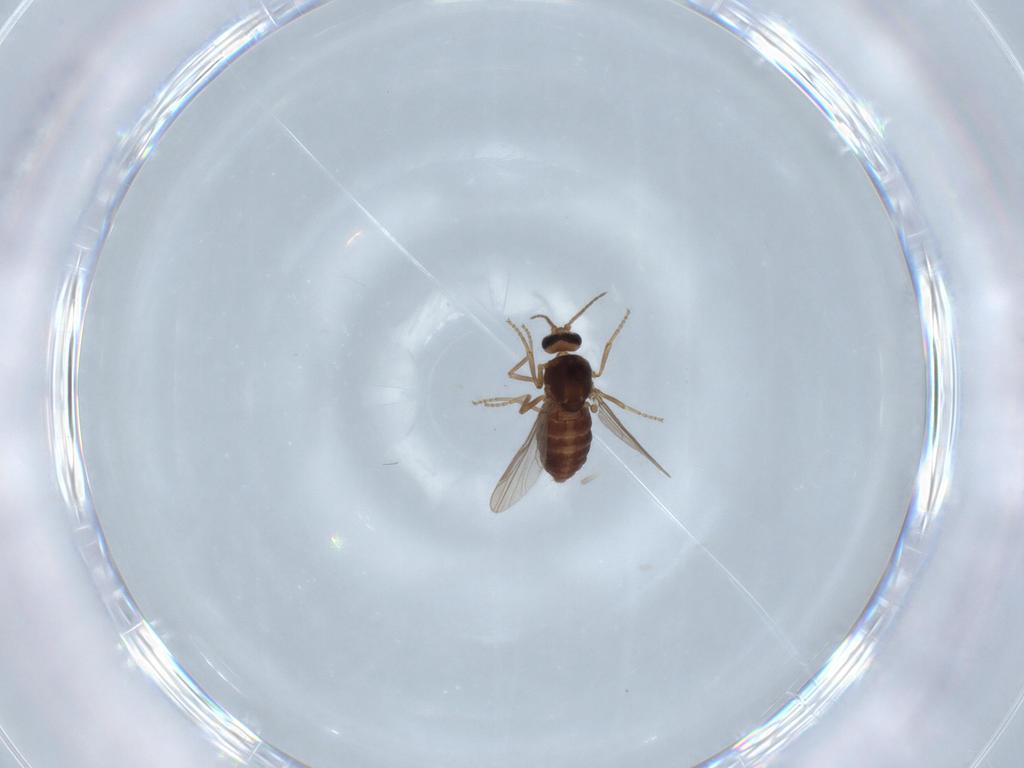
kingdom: Animalia
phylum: Arthropoda
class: Insecta
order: Diptera
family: Ceratopogonidae
